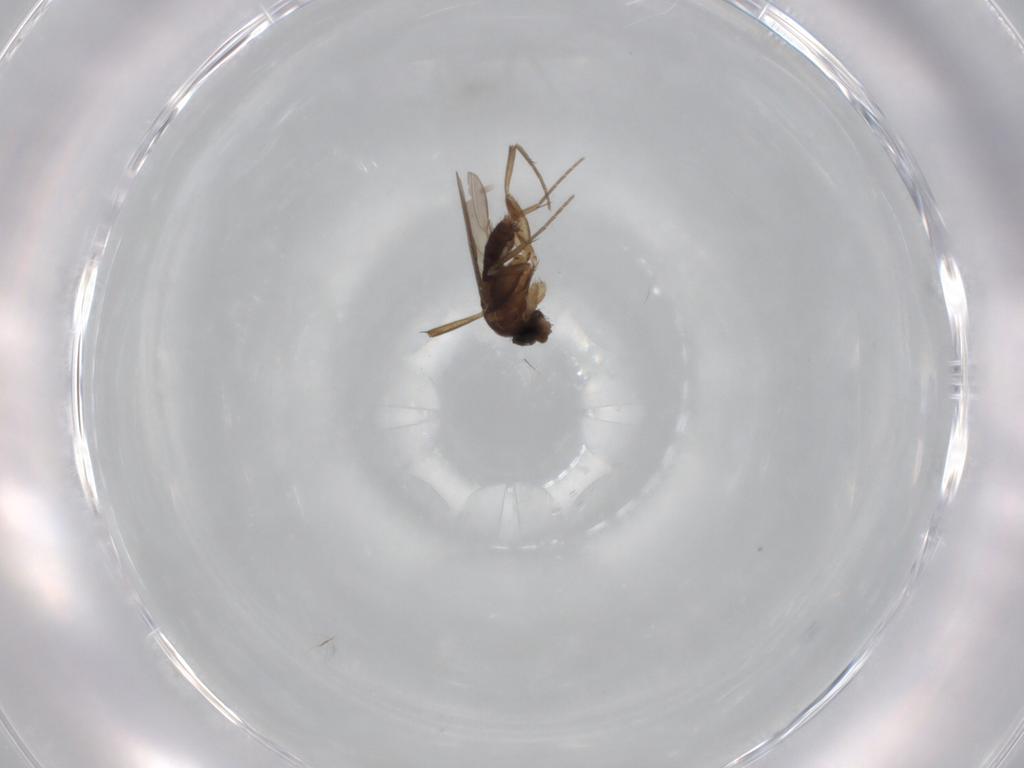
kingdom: Animalia
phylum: Arthropoda
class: Insecta
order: Diptera
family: Phoridae
